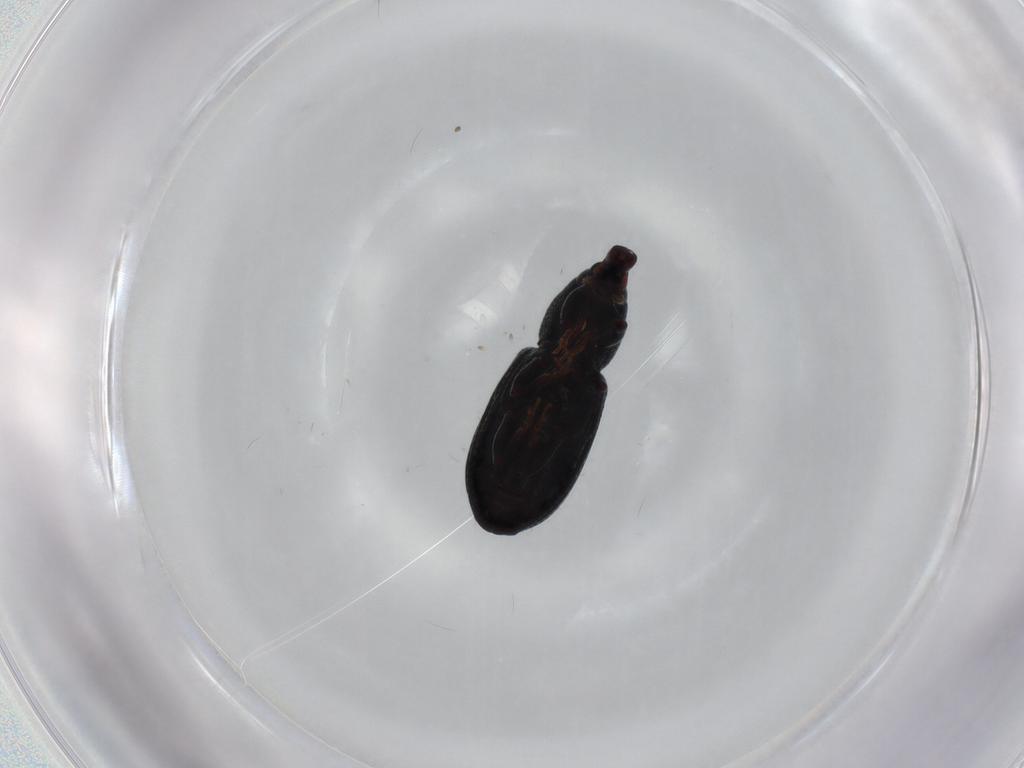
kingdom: Animalia
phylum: Arthropoda
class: Insecta
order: Coleoptera
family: Curculionidae
